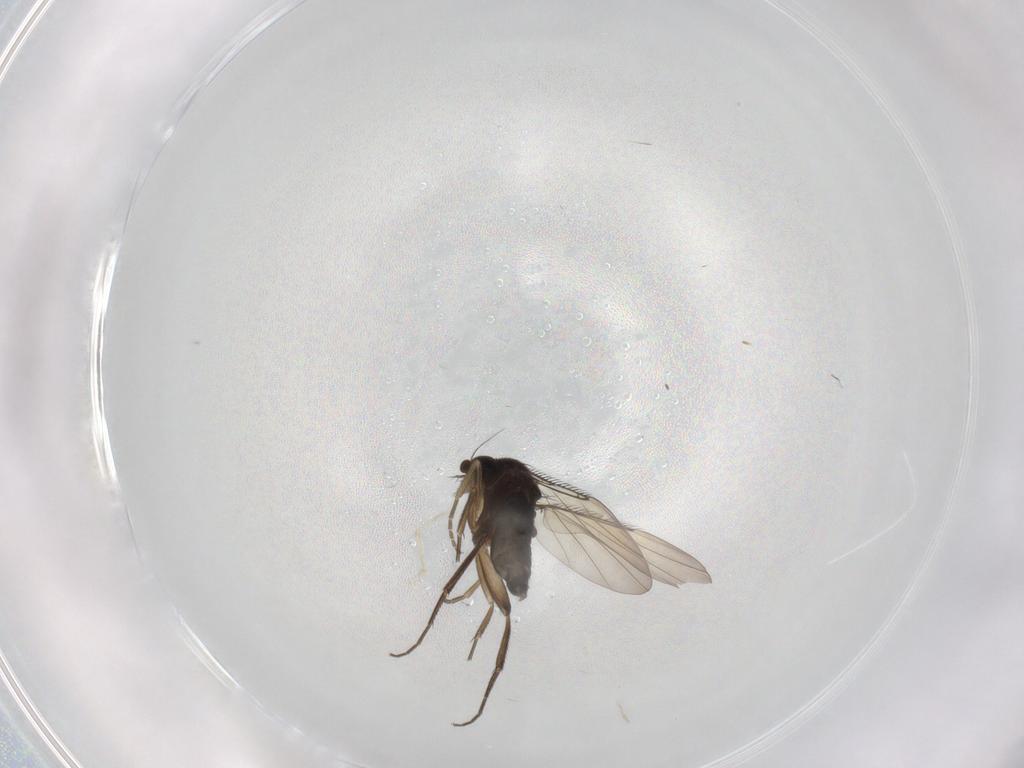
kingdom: Animalia
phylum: Arthropoda
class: Insecta
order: Diptera
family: Phoridae
